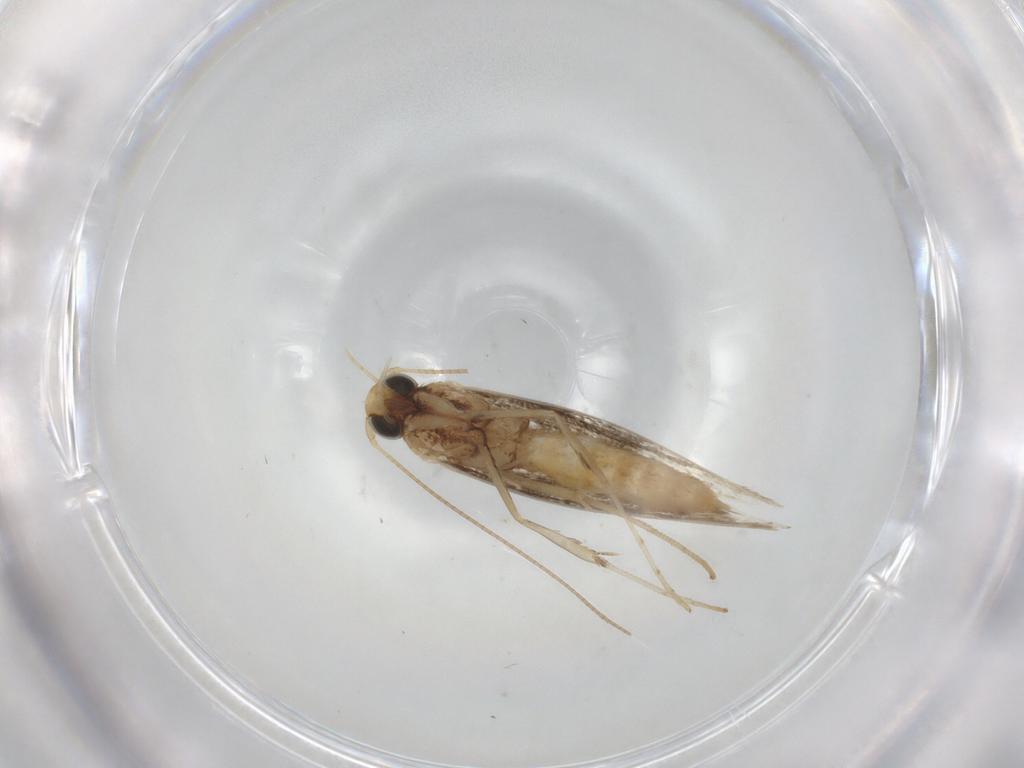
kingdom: Animalia
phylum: Arthropoda
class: Insecta
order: Lepidoptera
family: Gracillariidae
